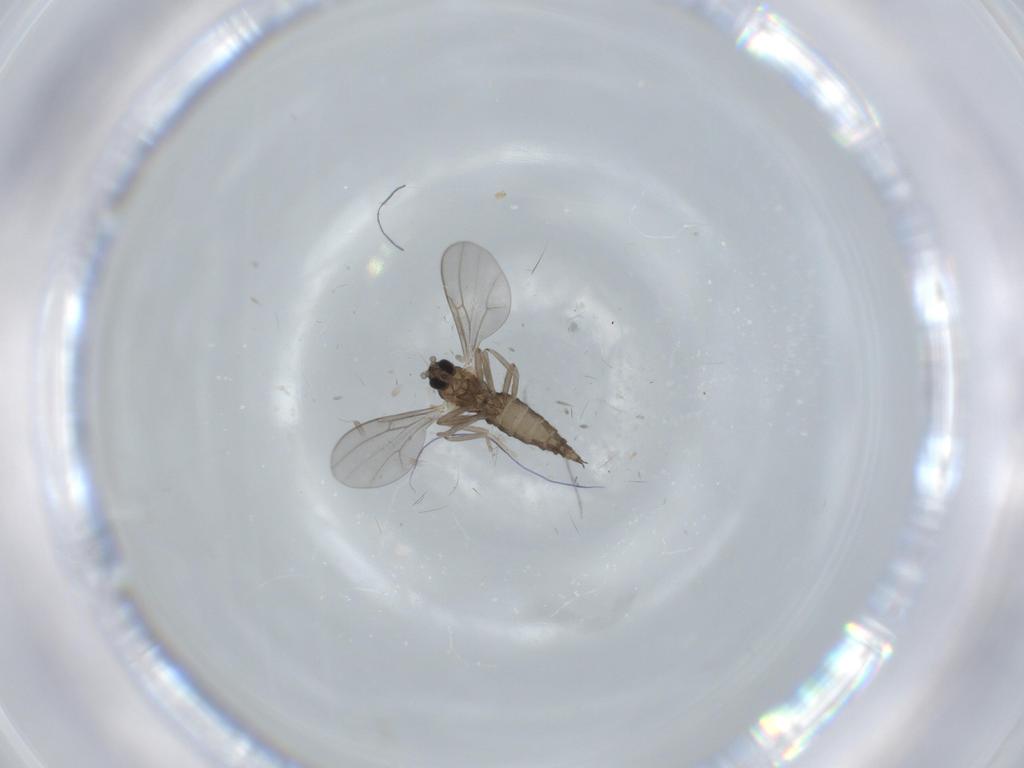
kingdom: Animalia
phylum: Arthropoda
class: Insecta
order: Diptera
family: Cecidomyiidae
